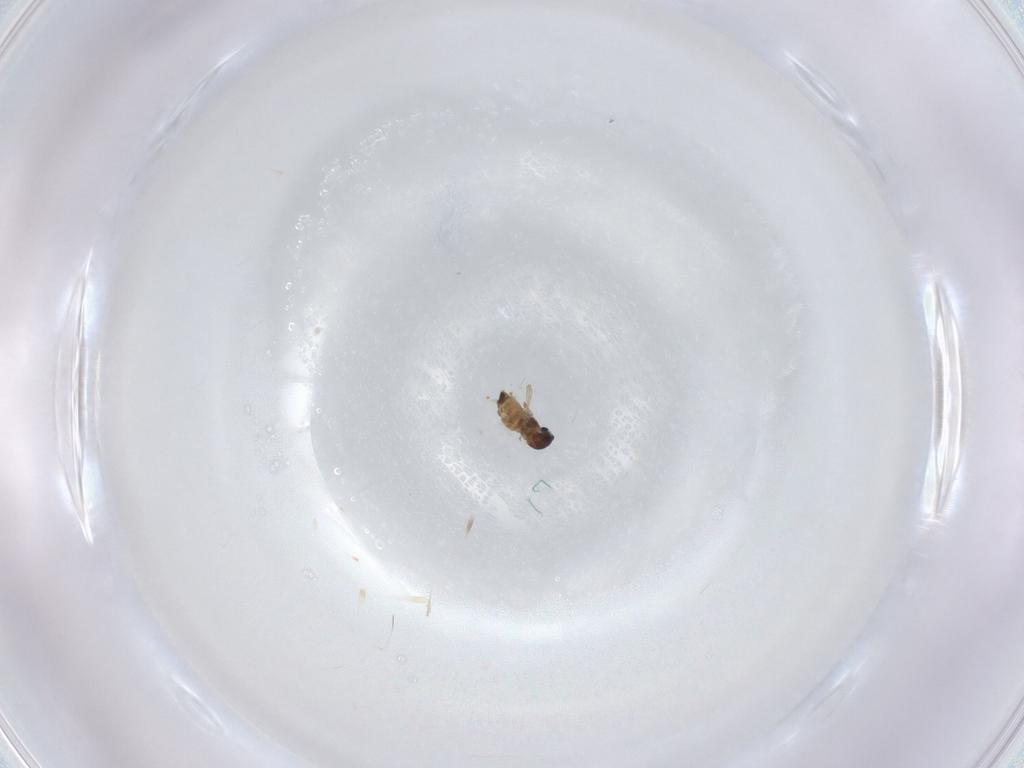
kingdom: Animalia
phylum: Arthropoda
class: Insecta
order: Diptera
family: Cecidomyiidae
